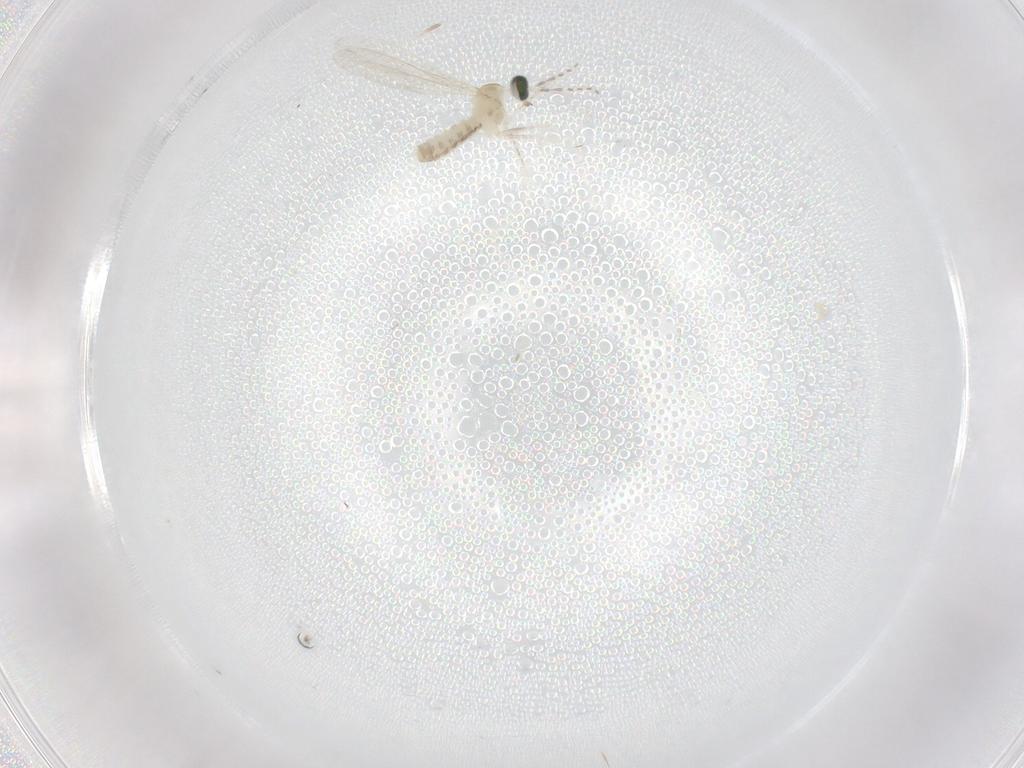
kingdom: Animalia
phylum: Arthropoda
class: Insecta
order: Diptera
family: Cecidomyiidae
